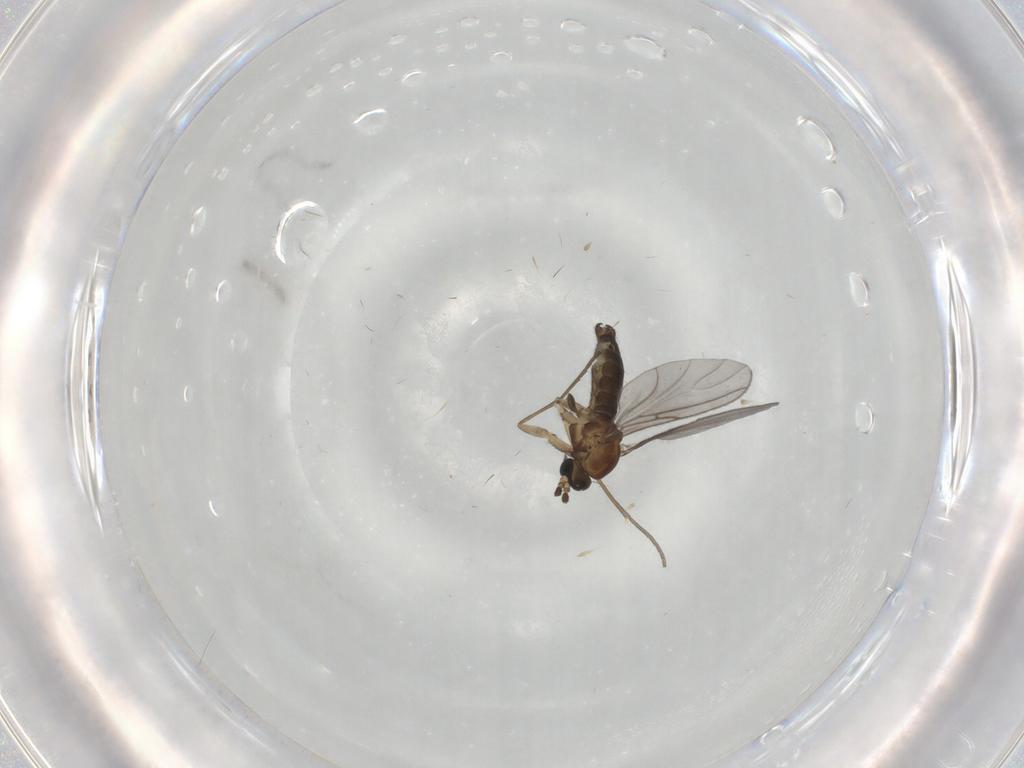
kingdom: Animalia
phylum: Arthropoda
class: Insecta
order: Diptera
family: Sciaridae
